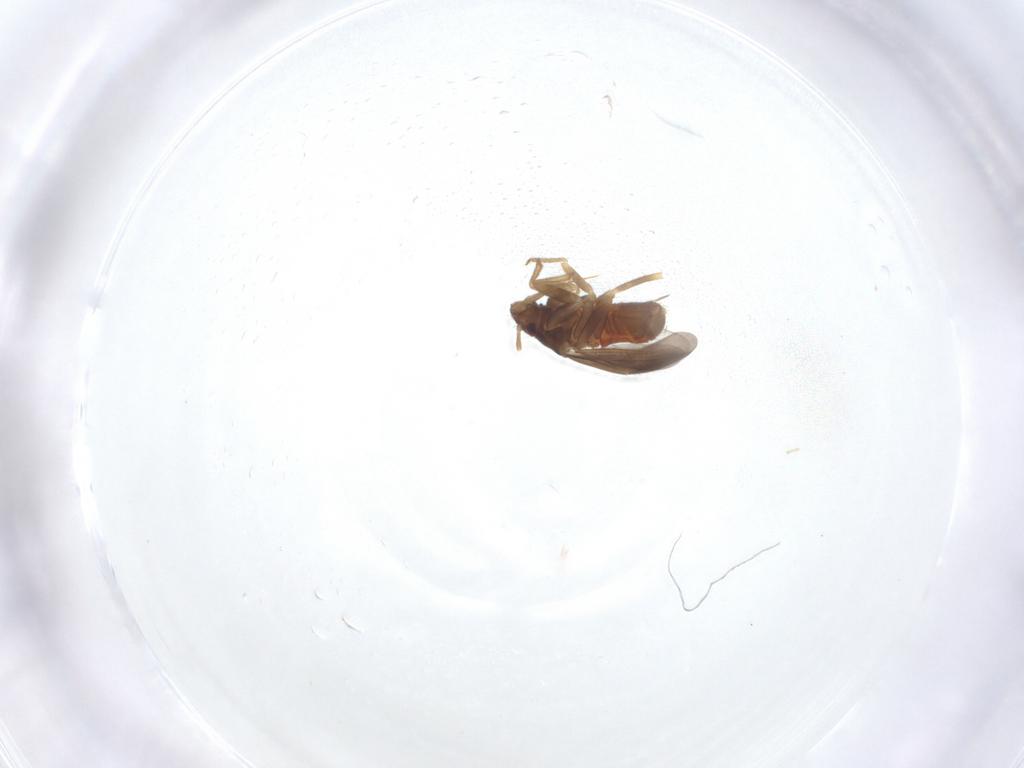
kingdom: Animalia
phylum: Arthropoda
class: Insecta
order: Hemiptera
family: Ceratocombidae
